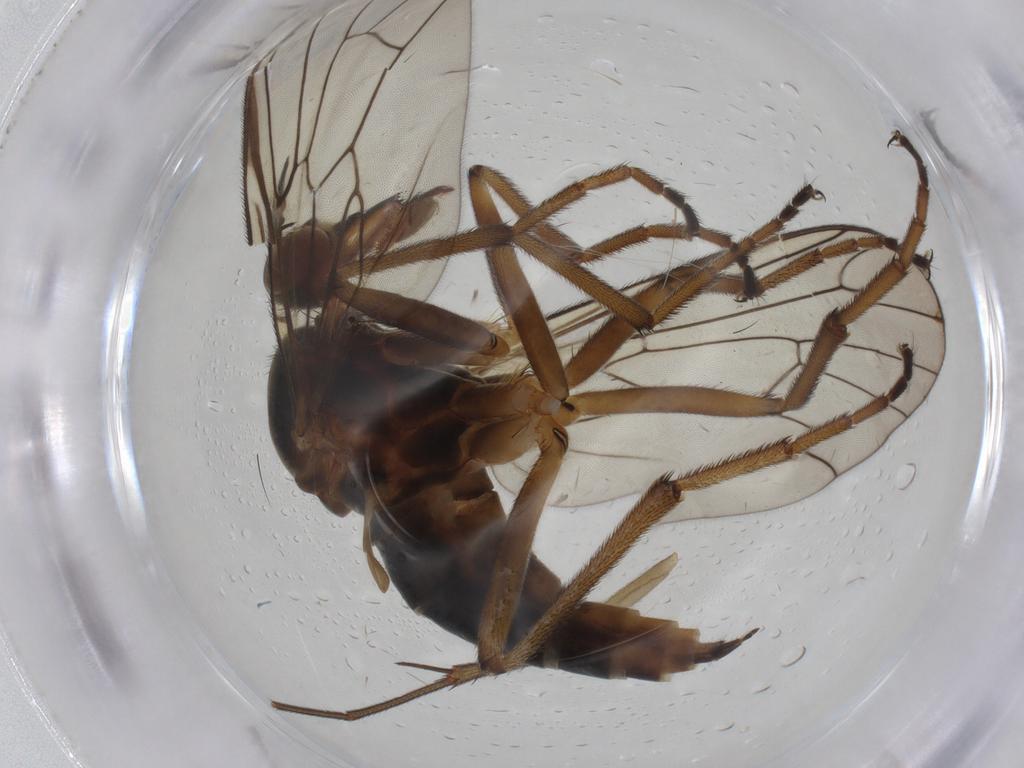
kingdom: Animalia
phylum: Arthropoda
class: Insecta
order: Diptera
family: Empididae
